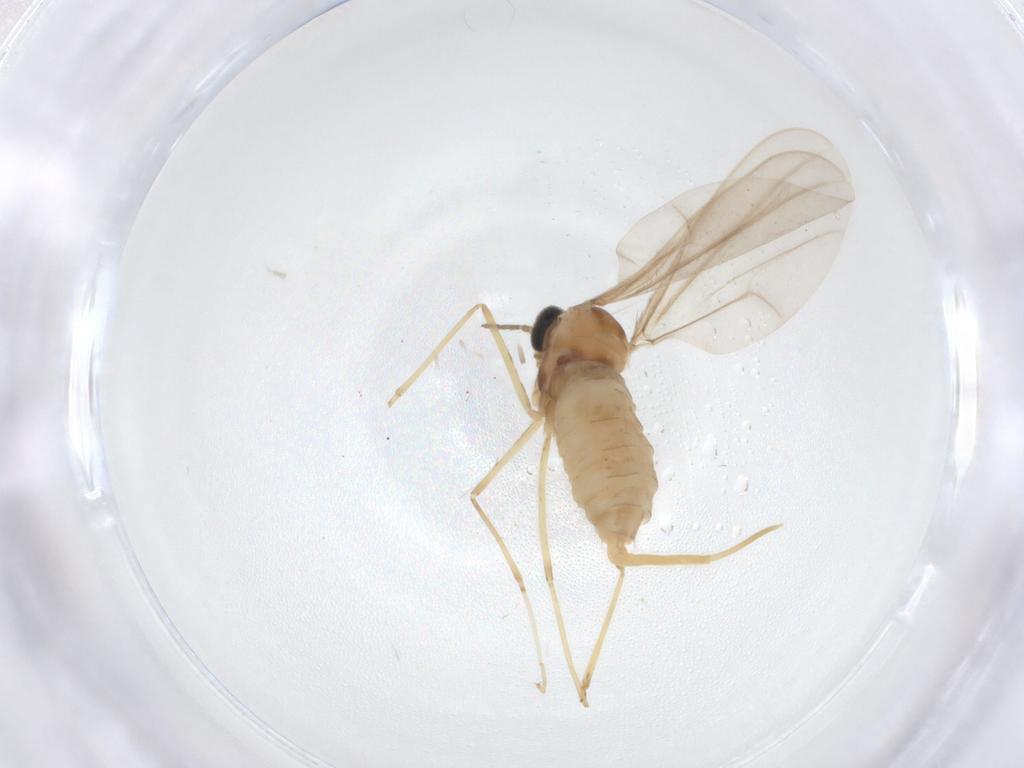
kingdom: Animalia
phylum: Arthropoda
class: Insecta
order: Diptera
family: Cecidomyiidae
